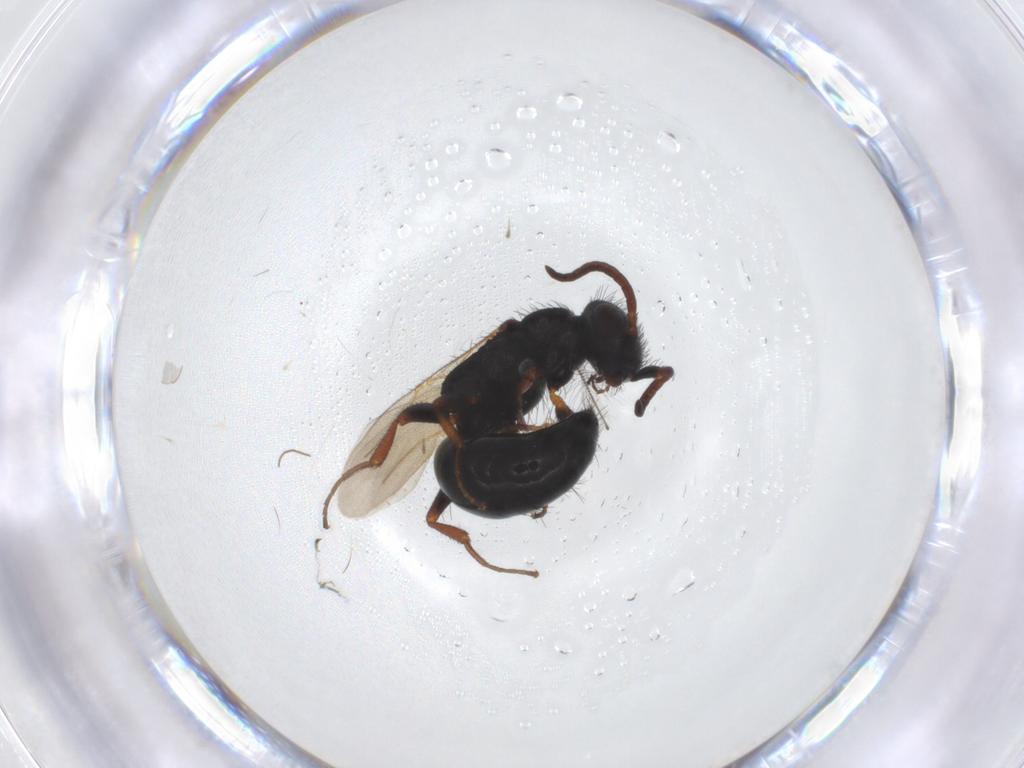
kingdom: Animalia
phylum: Arthropoda
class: Insecta
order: Hymenoptera
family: Bethylidae
